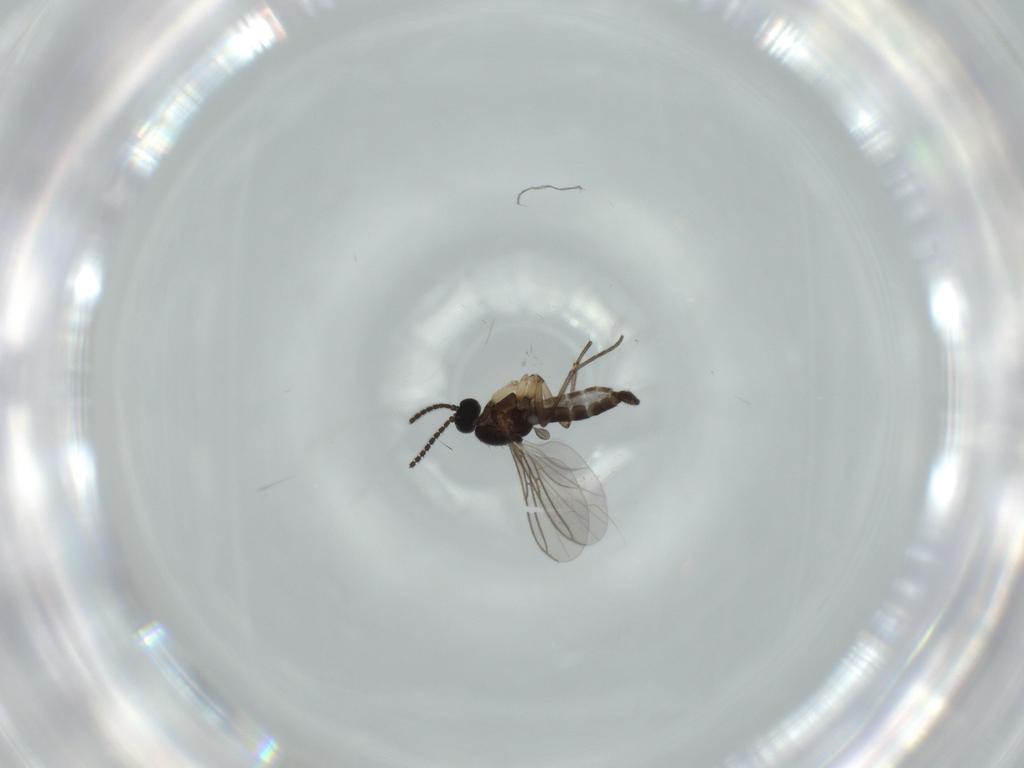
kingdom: Animalia
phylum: Arthropoda
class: Insecta
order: Diptera
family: Sciaridae
